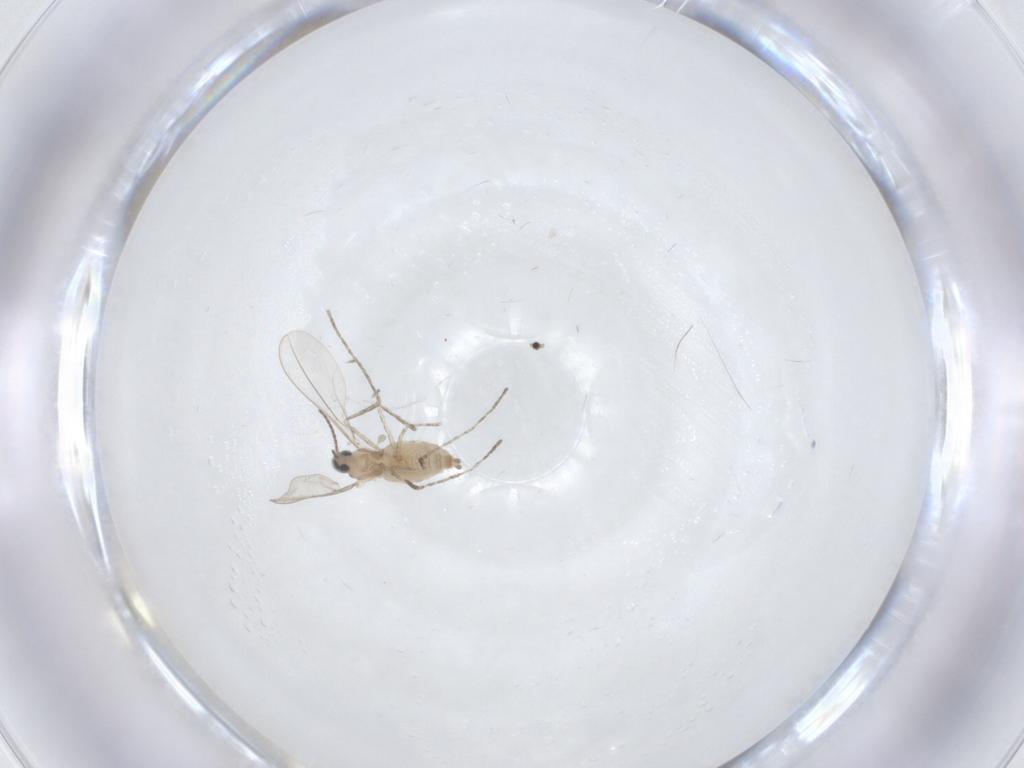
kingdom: Animalia
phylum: Arthropoda
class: Insecta
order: Diptera
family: Cecidomyiidae
